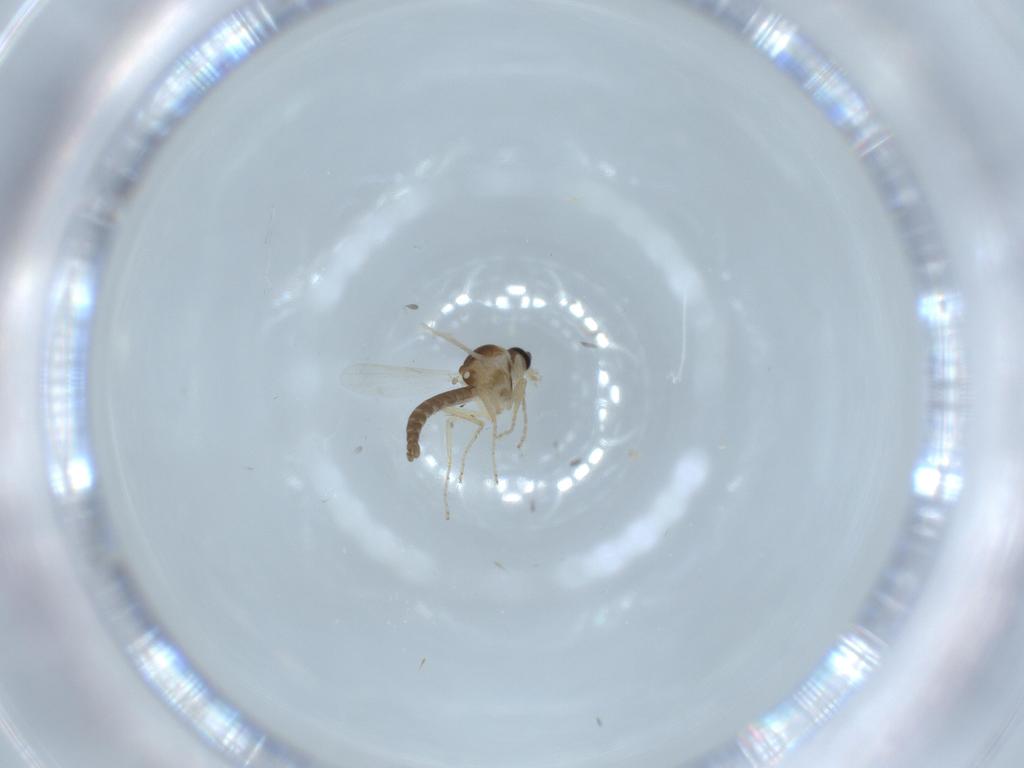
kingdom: Animalia
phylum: Arthropoda
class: Insecta
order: Diptera
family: Ceratopogonidae
